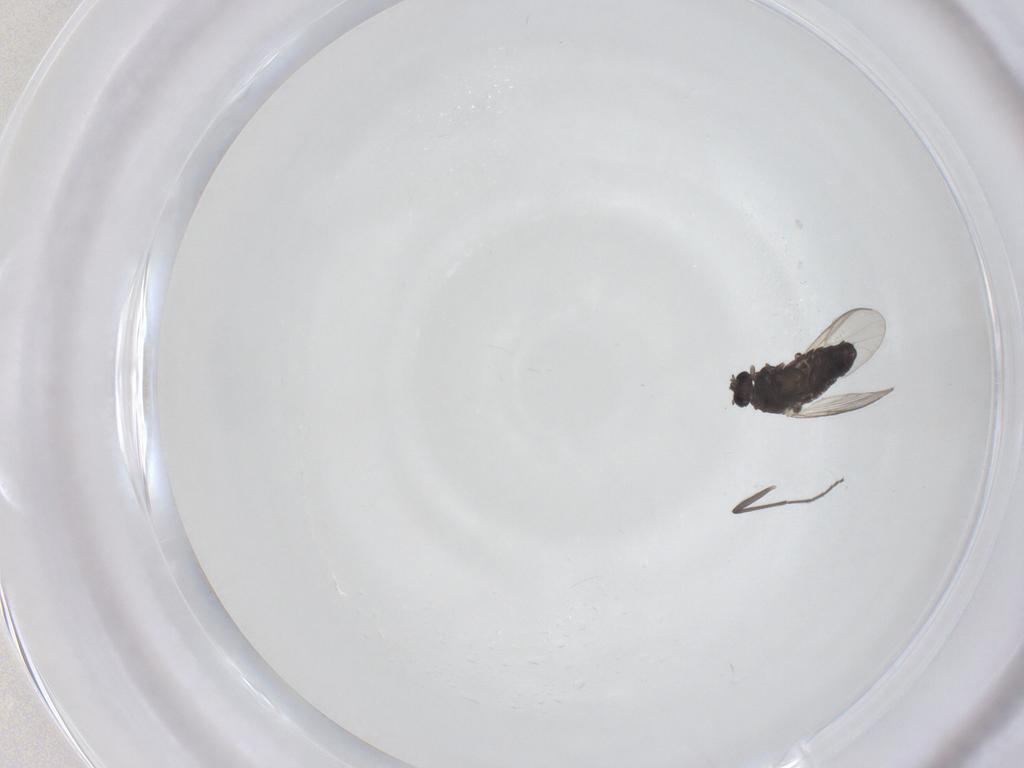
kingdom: Animalia
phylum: Arthropoda
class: Insecta
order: Diptera
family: Chironomidae
